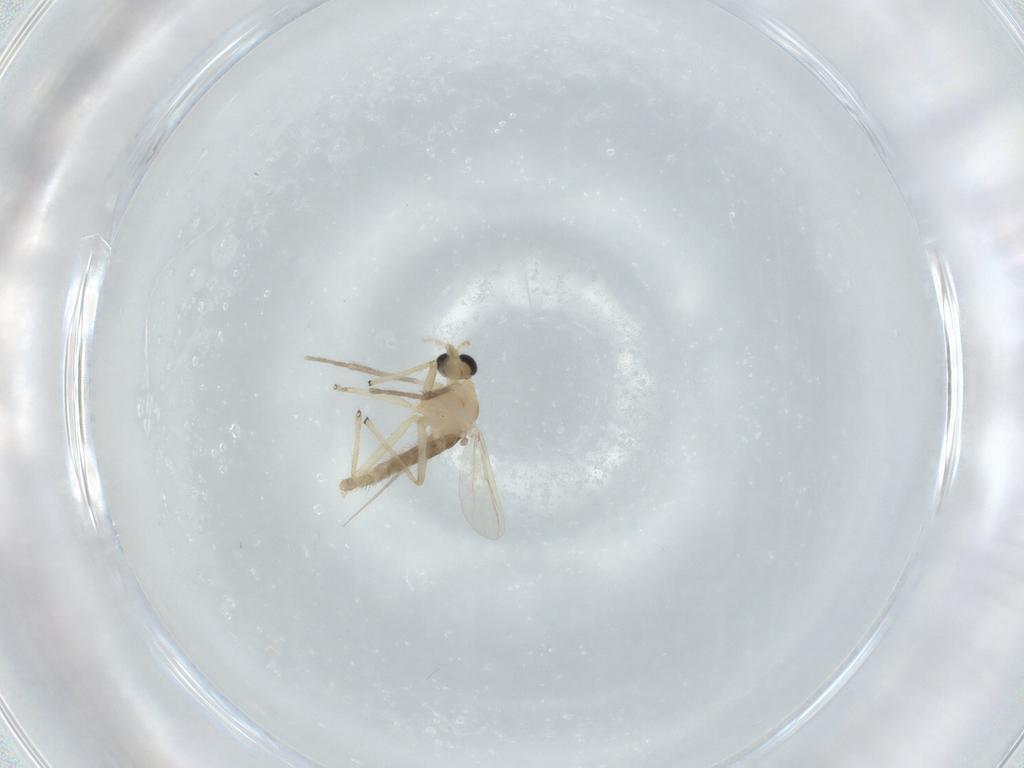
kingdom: Animalia
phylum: Arthropoda
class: Insecta
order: Diptera
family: Chironomidae
